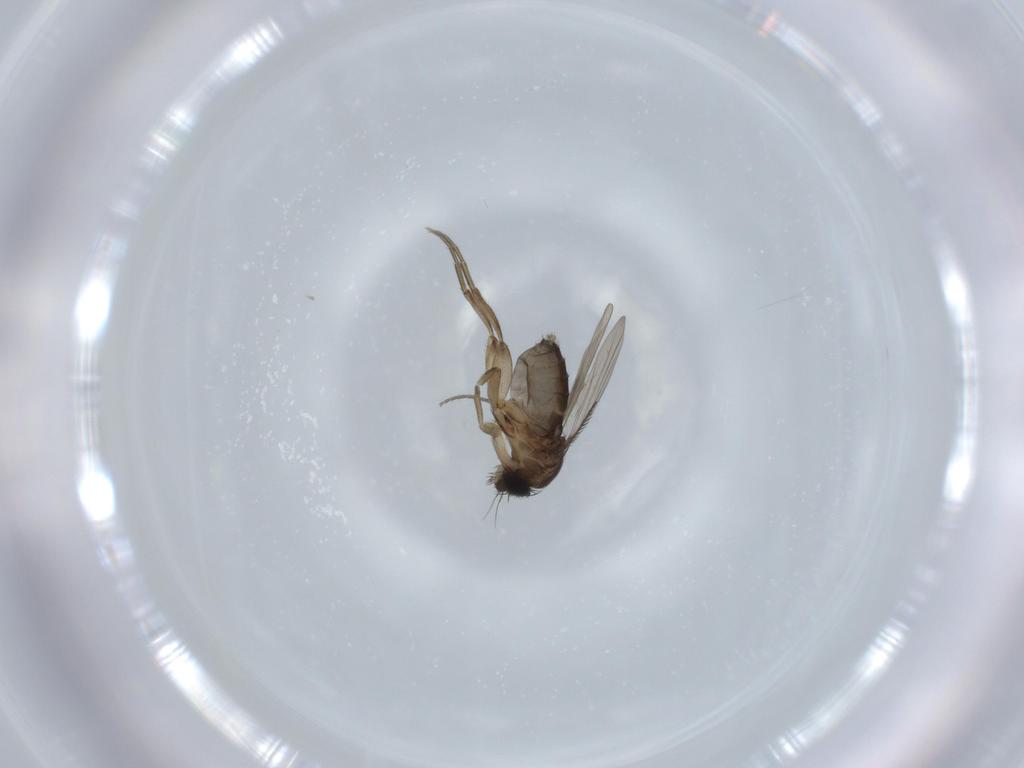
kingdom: Animalia
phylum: Arthropoda
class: Insecta
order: Diptera
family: Phoridae
